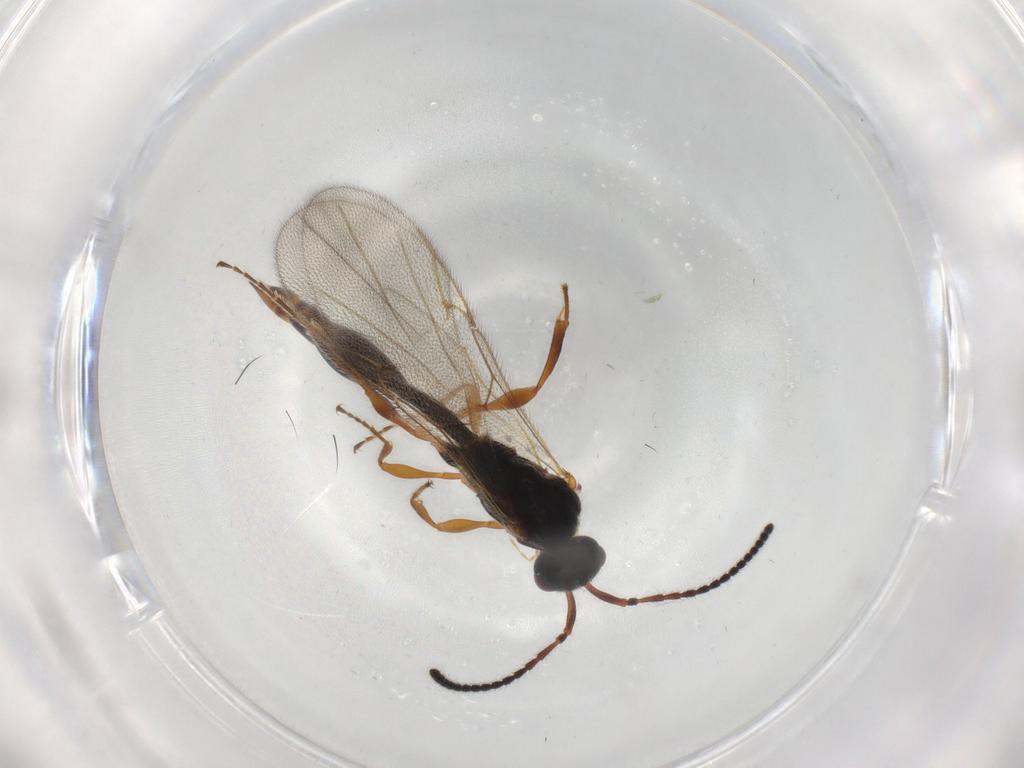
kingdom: Animalia
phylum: Arthropoda
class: Insecta
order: Hymenoptera
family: Diapriidae
